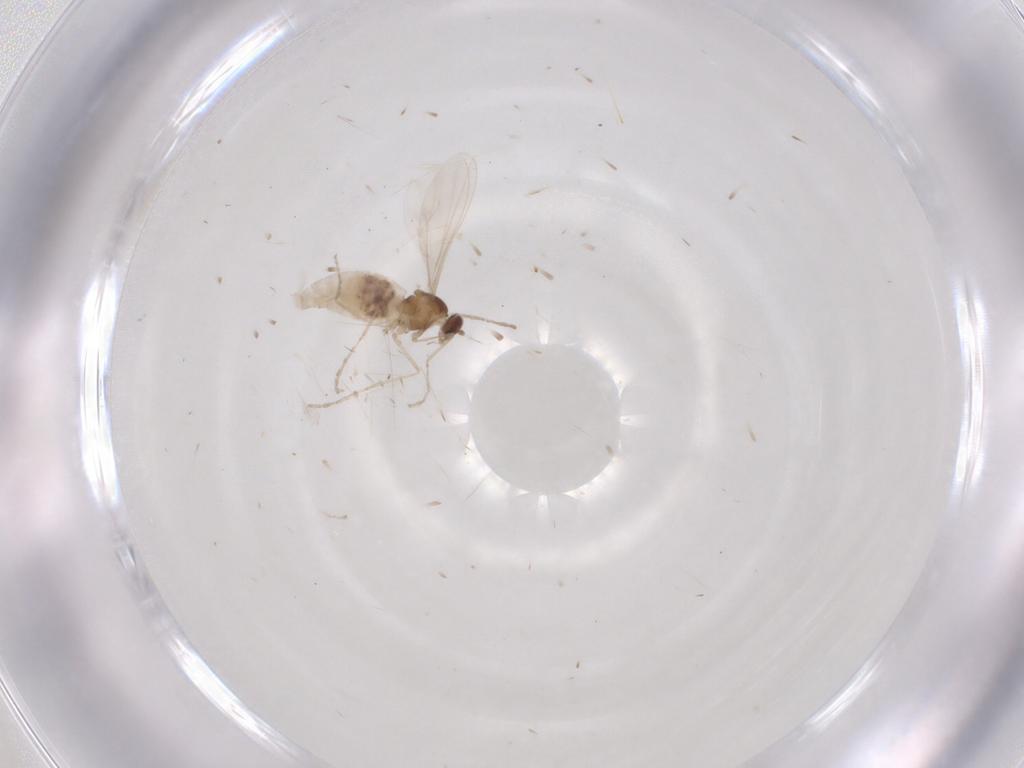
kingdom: Animalia
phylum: Arthropoda
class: Insecta
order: Diptera
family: Cecidomyiidae
